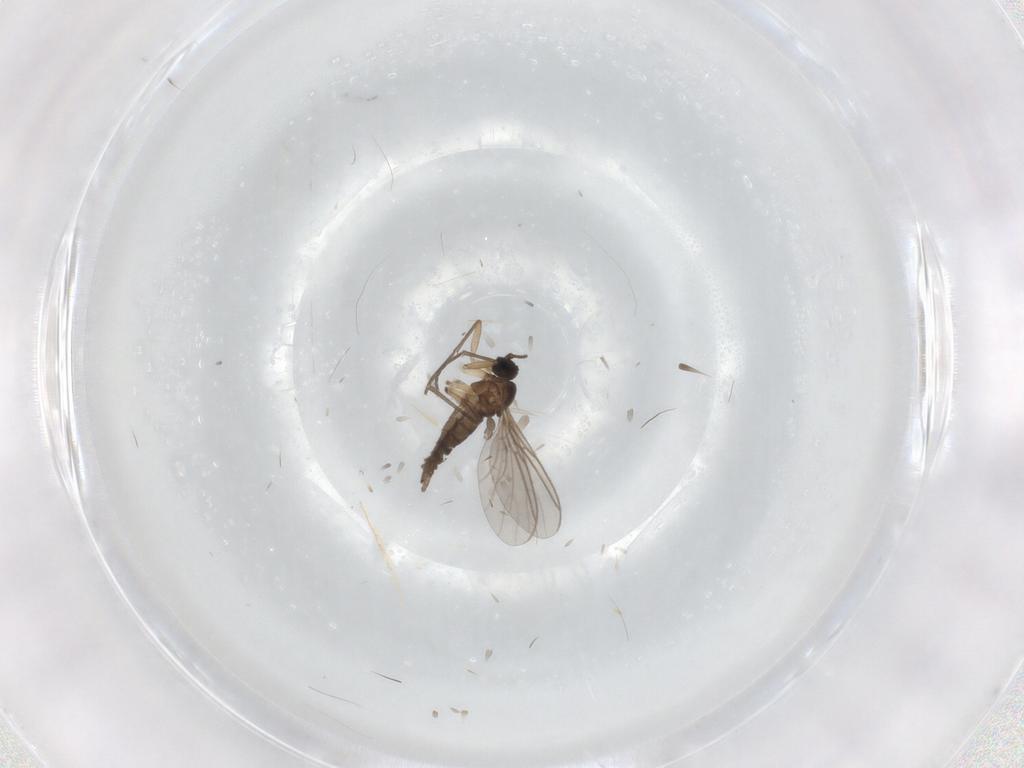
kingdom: Animalia
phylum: Arthropoda
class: Insecta
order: Diptera
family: Sciaridae
